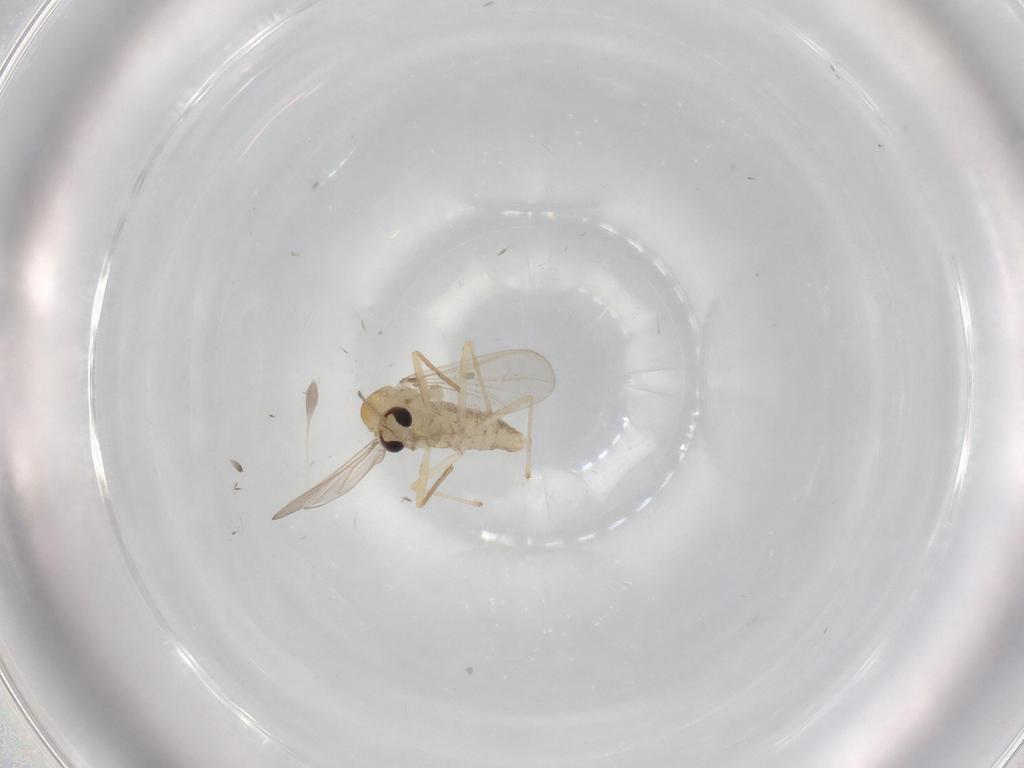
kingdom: Animalia
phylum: Arthropoda
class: Insecta
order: Diptera
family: Chironomidae
